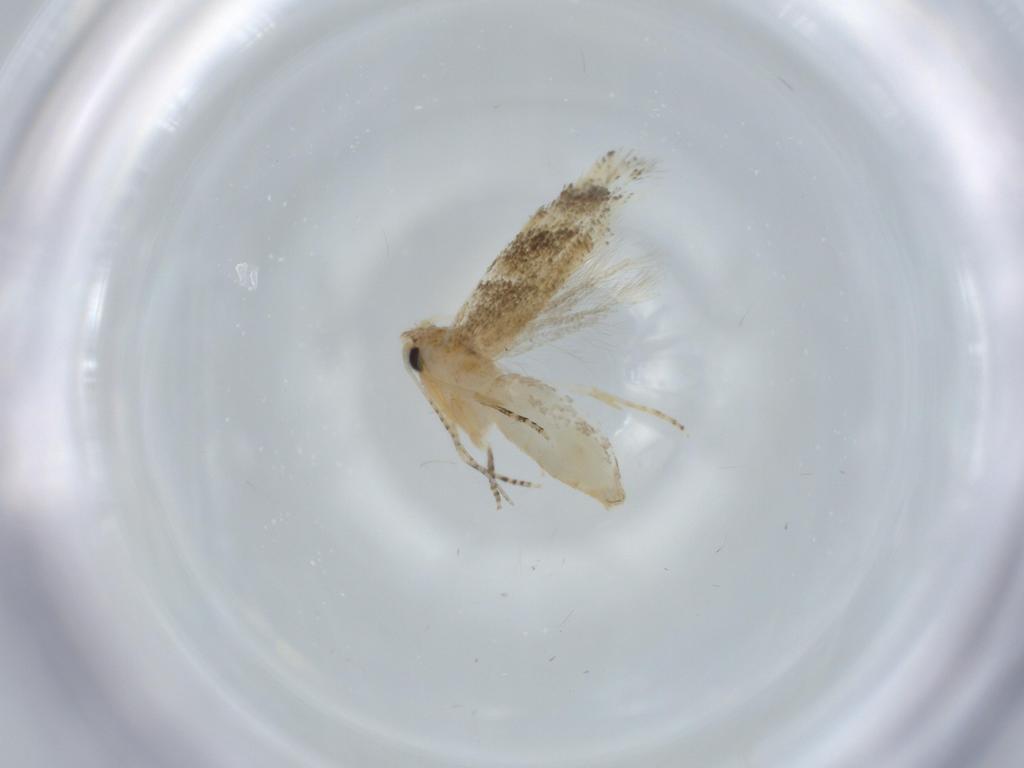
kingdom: Animalia
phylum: Arthropoda
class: Insecta
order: Lepidoptera
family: Bucculatricidae
